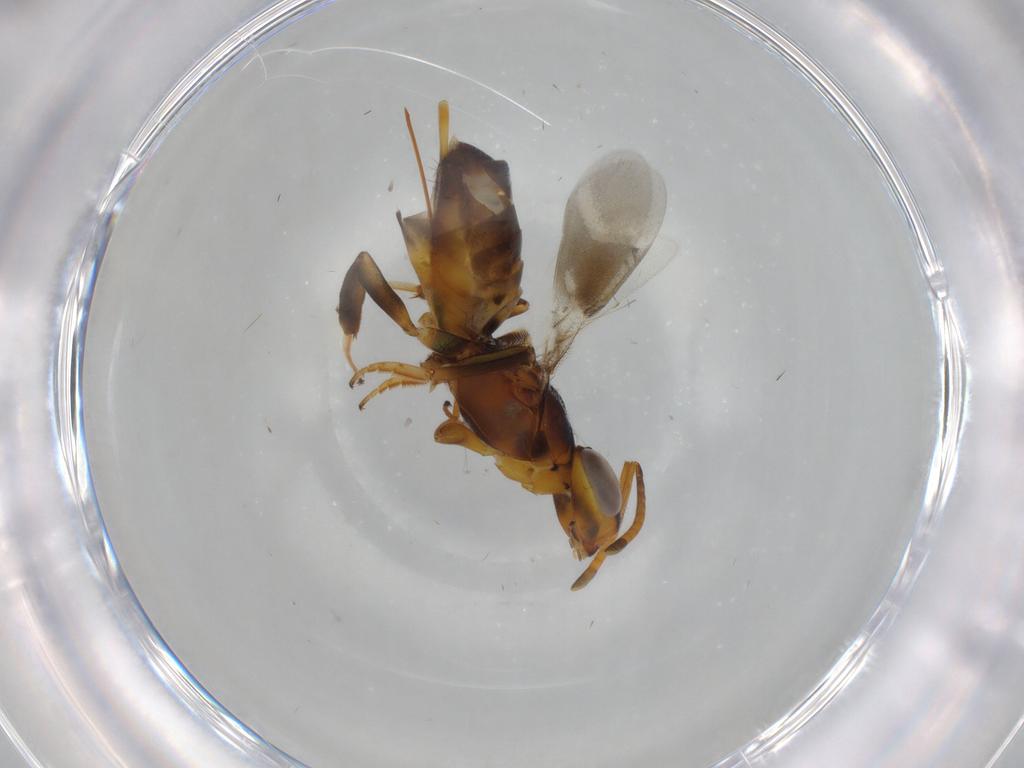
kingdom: Animalia
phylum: Arthropoda
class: Insecta
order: Hymenoptera
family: Eupelmidae
